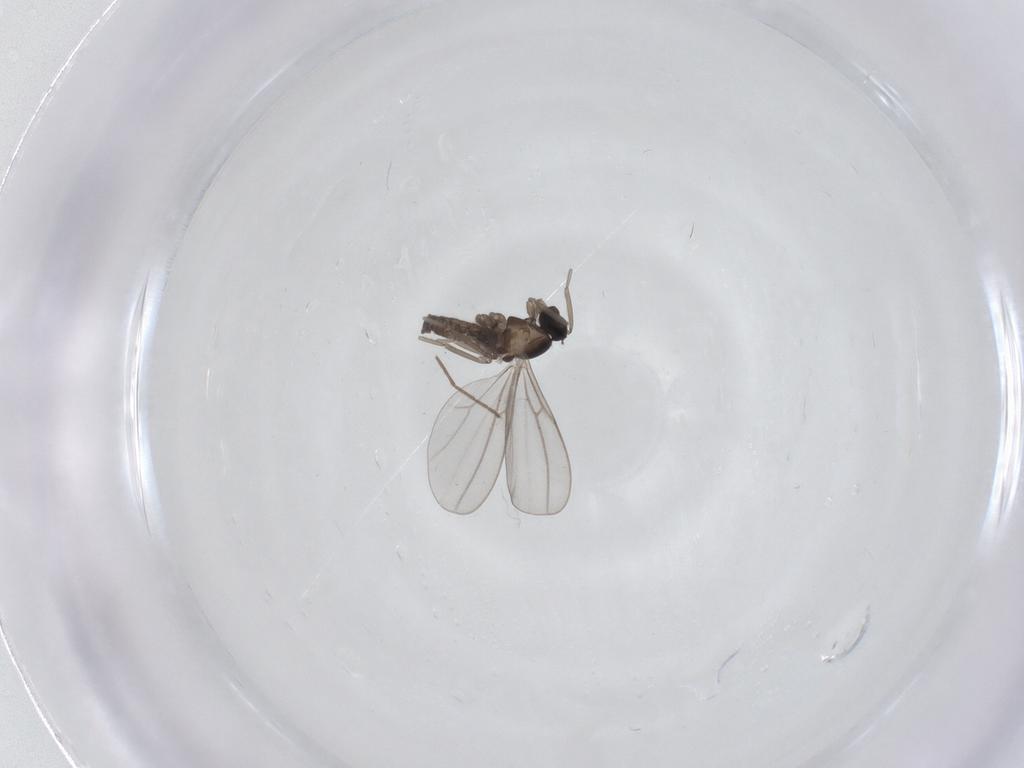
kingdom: Animalia
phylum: Arthropoda
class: Insecta
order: Diptera
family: Cecidomyiidae
